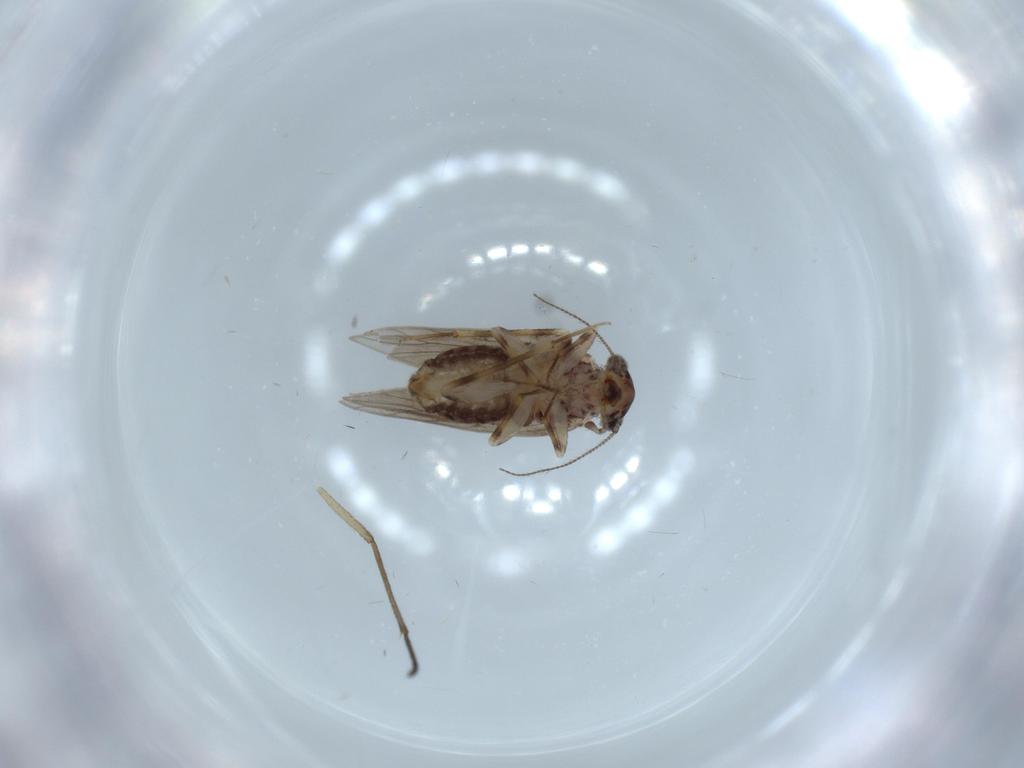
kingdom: Animalia
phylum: Arthropoda
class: Insecta
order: Psocodea
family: Lepidopsocidae
